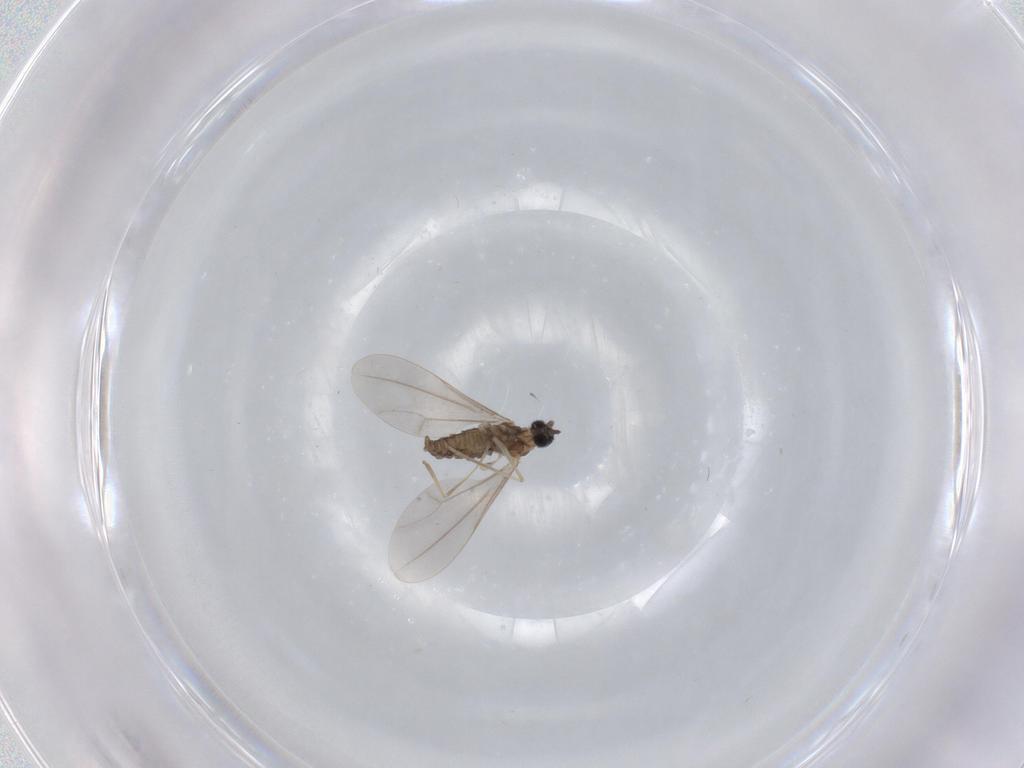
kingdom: Animalia
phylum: Arthropoda
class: Insecta
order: Diptera
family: Cecidomyiidae
